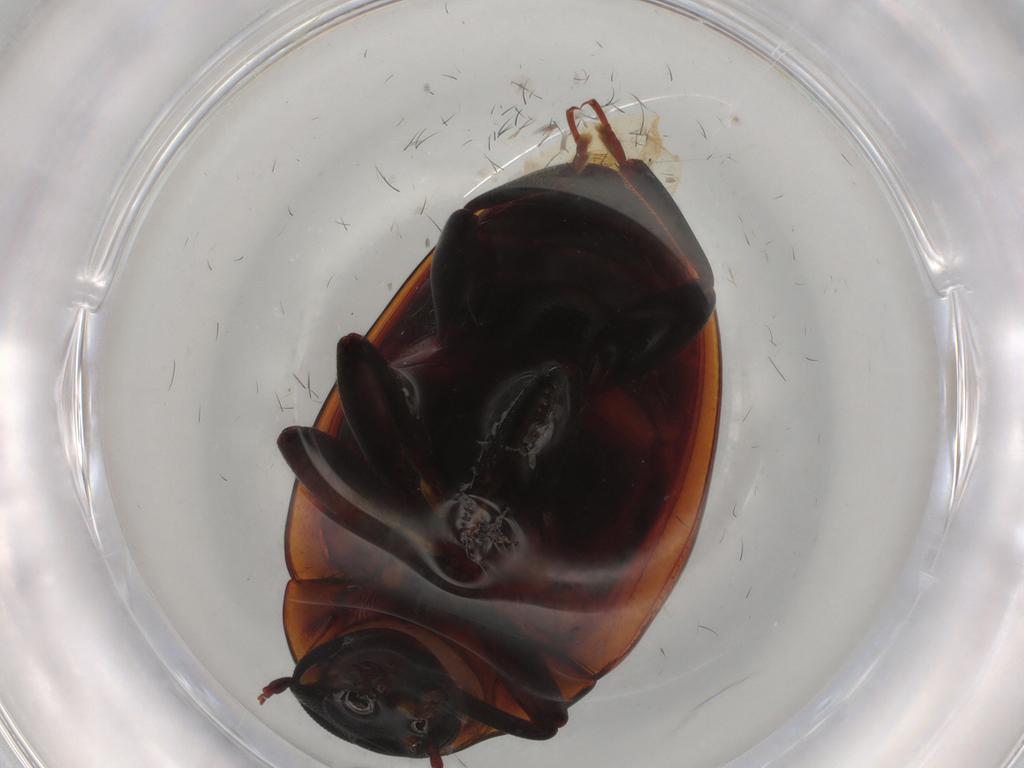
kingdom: Animalia
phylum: Arthropoda
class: Insecta
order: Coleoptera
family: Zopheridae
